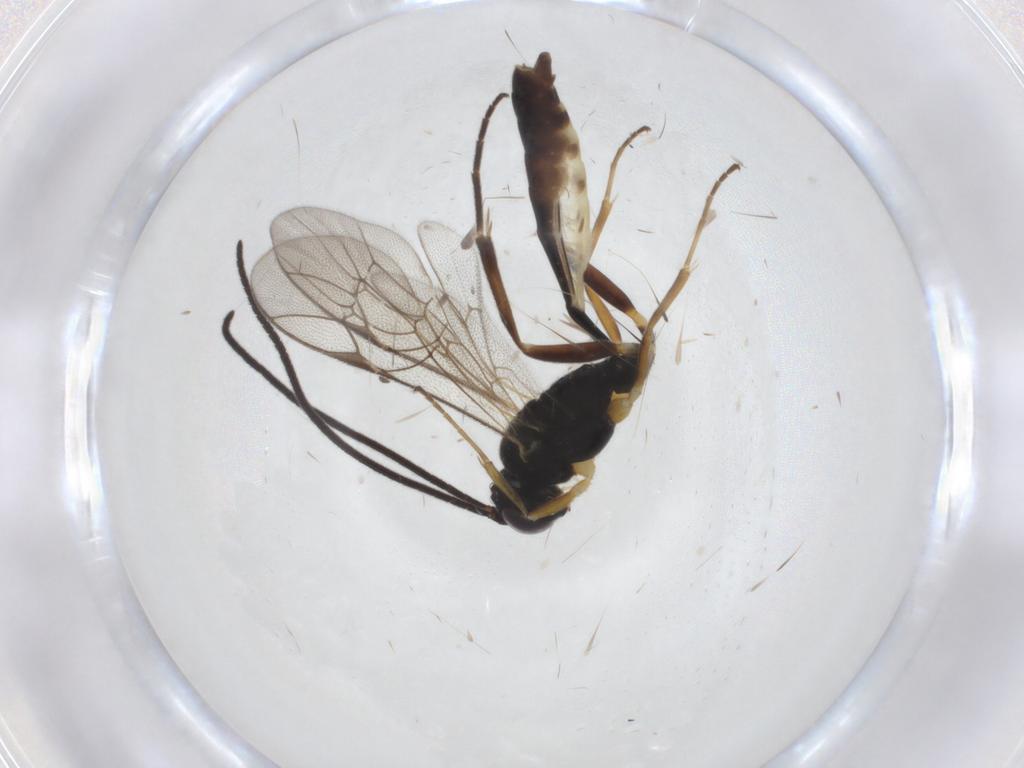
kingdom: Animalia
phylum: Arthropoda
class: Insecta
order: Hymenoptera
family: Ichneumonidae
